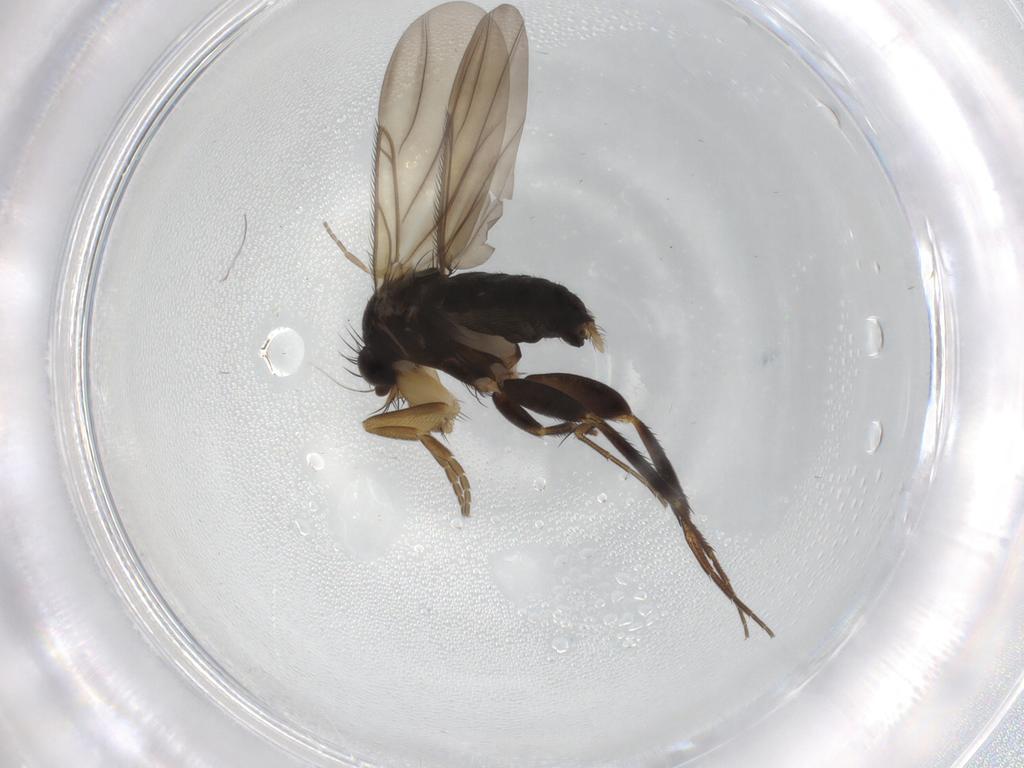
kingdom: Animalia
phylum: Arthropoda
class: Insecta
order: Diptera
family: Phoridae
